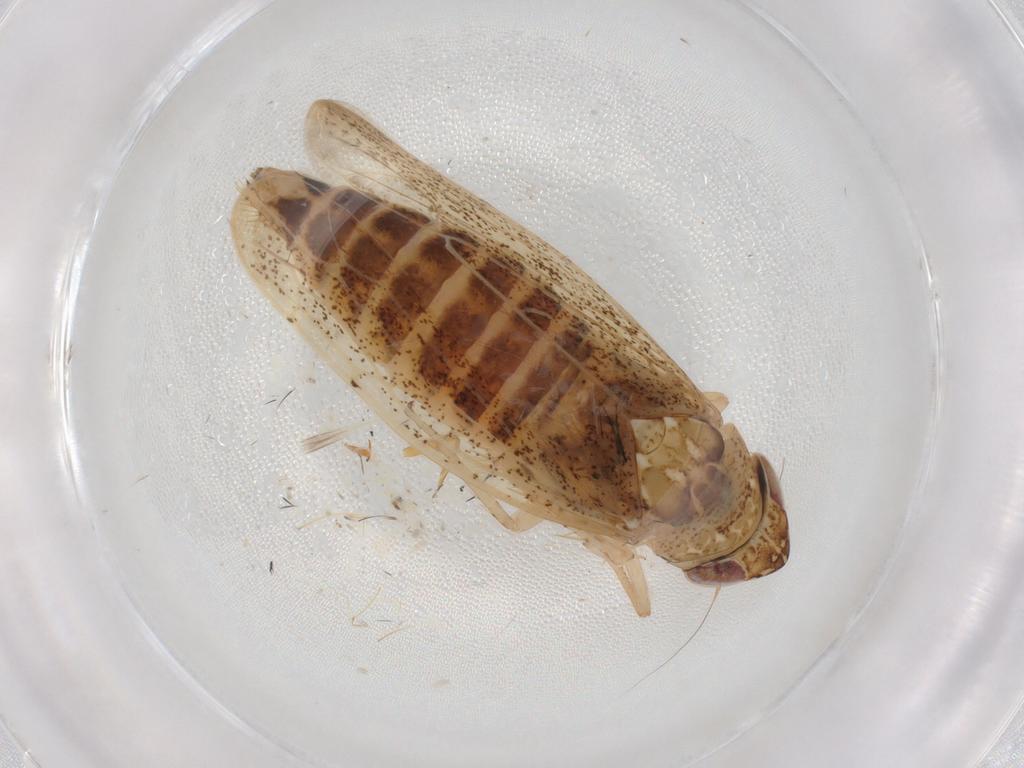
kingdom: Animalia
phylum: Arthropoda
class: Insecta
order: Hemiptera
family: Cicadellidae
